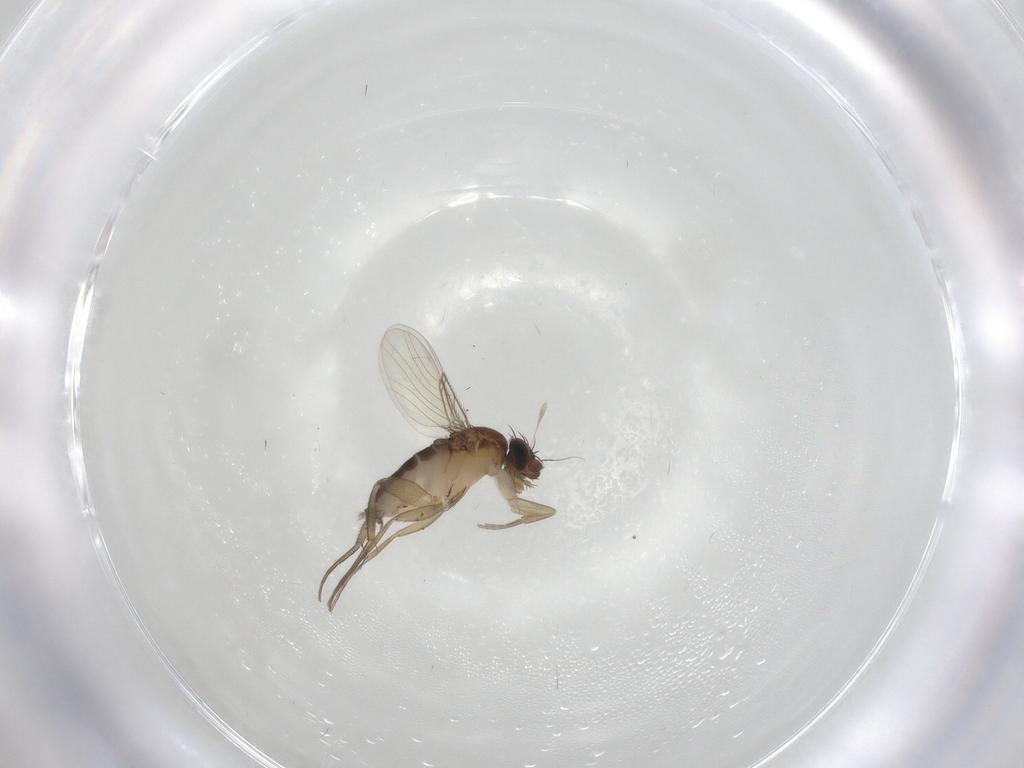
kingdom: Animalia
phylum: Arthropoda
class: Insecta
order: Diptera
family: Phoridae
